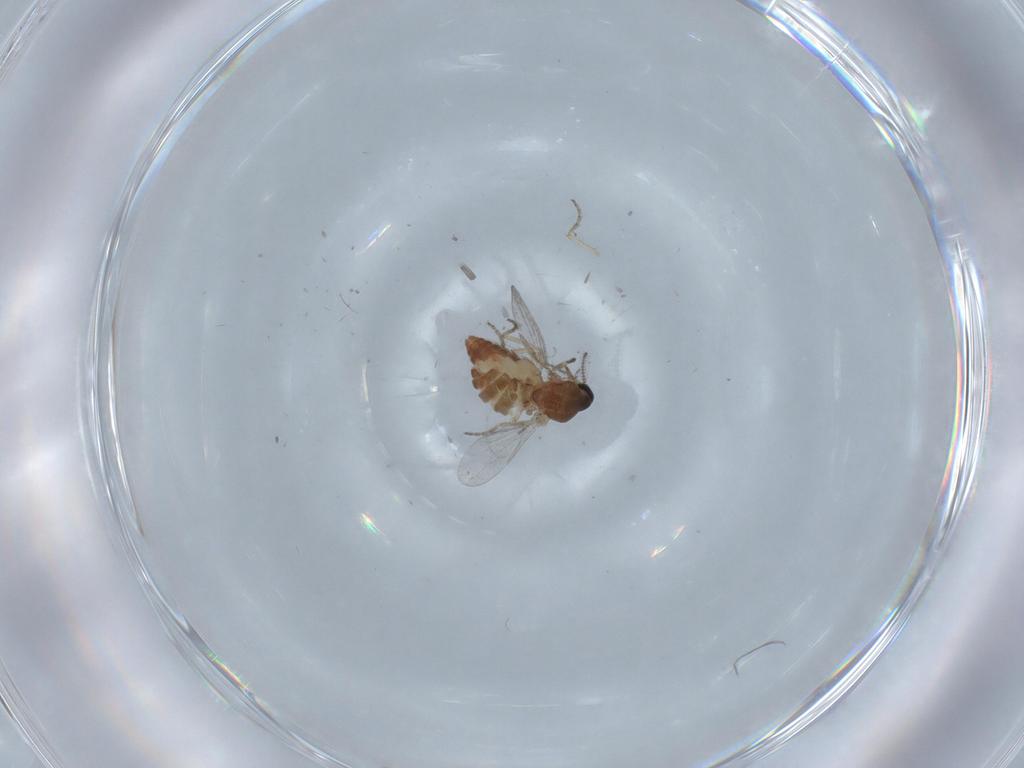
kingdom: Animalia
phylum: Arthropoda
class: Insecta
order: Diptera
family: Ceratopogonidae
